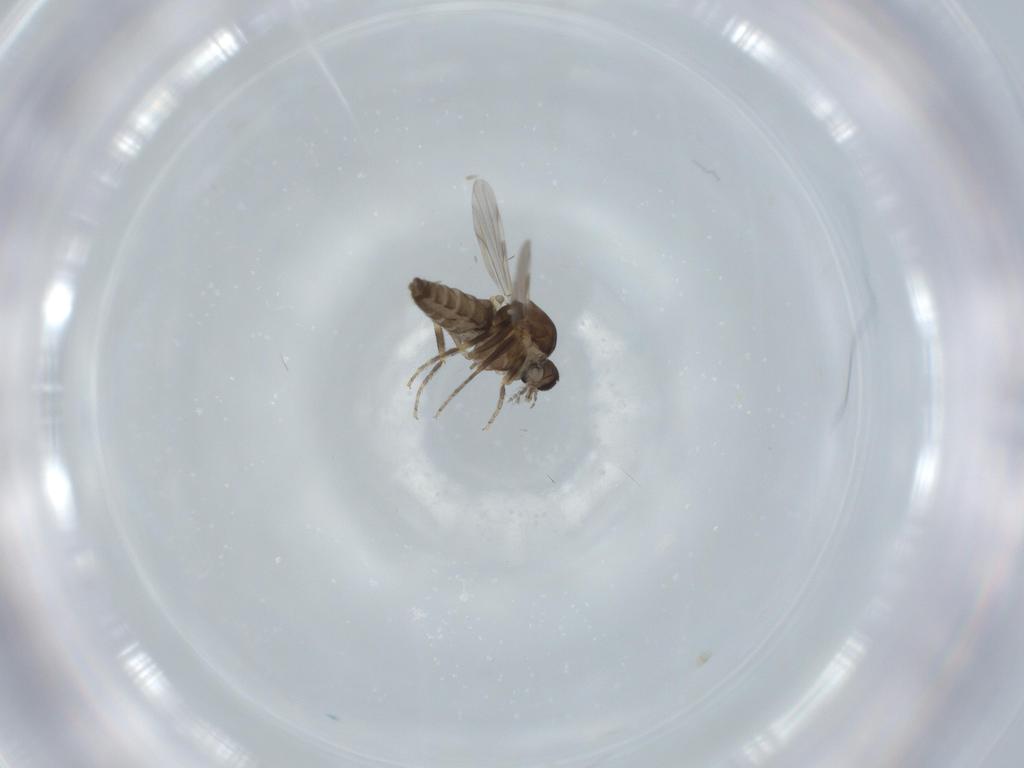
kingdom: Animalia
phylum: Arthropoda
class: Insecta
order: Diptera
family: Ceratopogonidae
